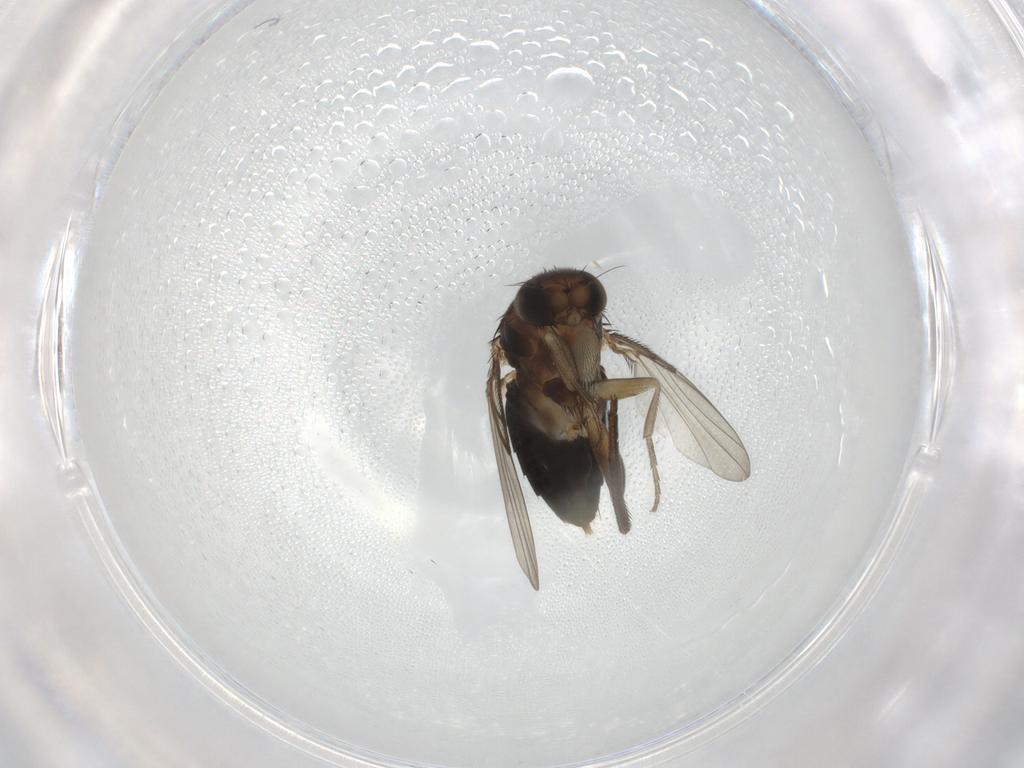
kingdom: Animalia
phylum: Arthropoda
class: Insecta
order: Diptera
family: Phoridae
